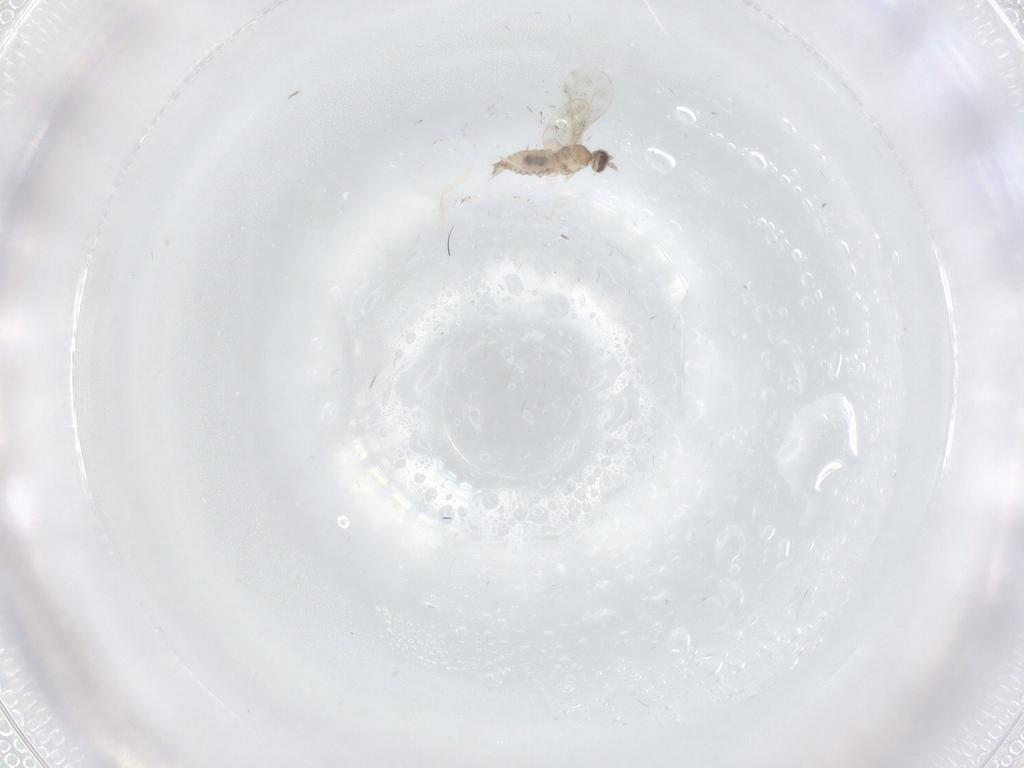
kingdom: Animalia
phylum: Arthropoda
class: Insecta
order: Diptera
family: Cecidomyiidae
